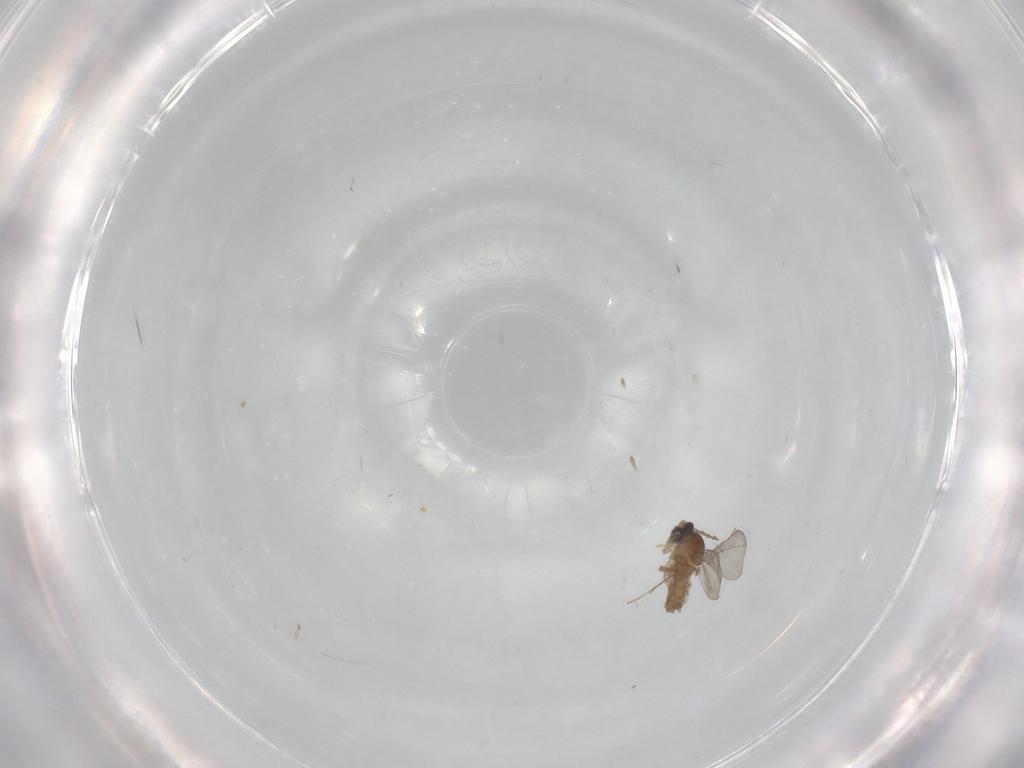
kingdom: Animalia
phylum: Arthropoda
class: Insecta
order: Diptera
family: Cecidomyiidae
